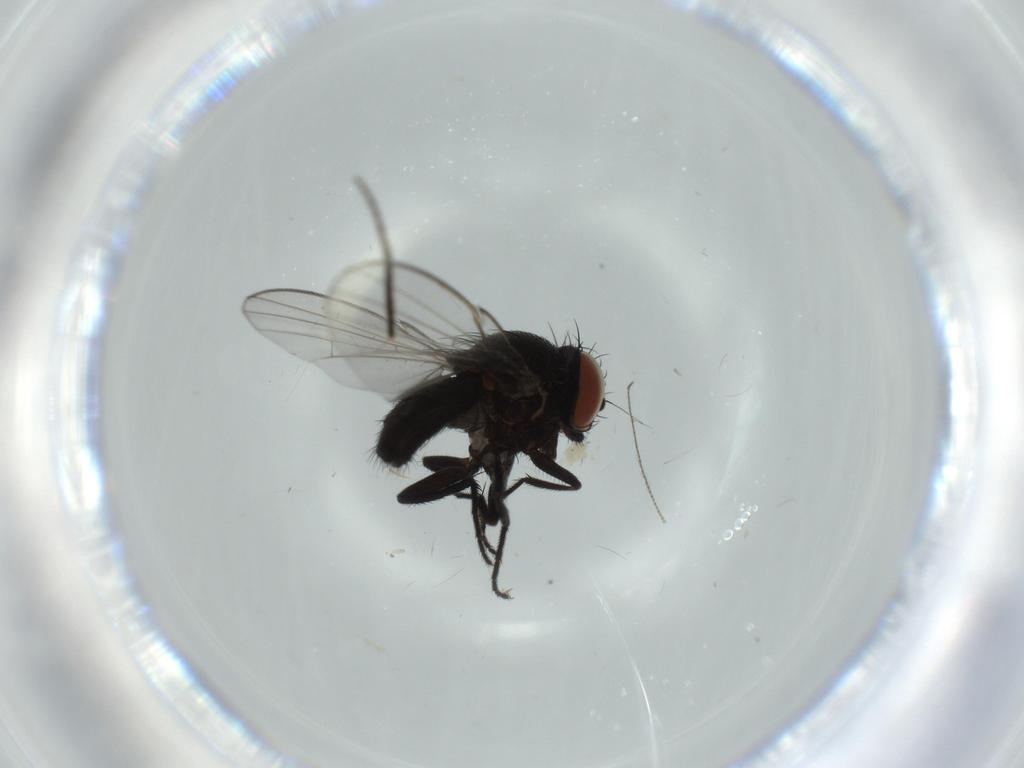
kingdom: Animalia
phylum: Arthropoda
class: Insecta
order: Diptera
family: Milichiidae
